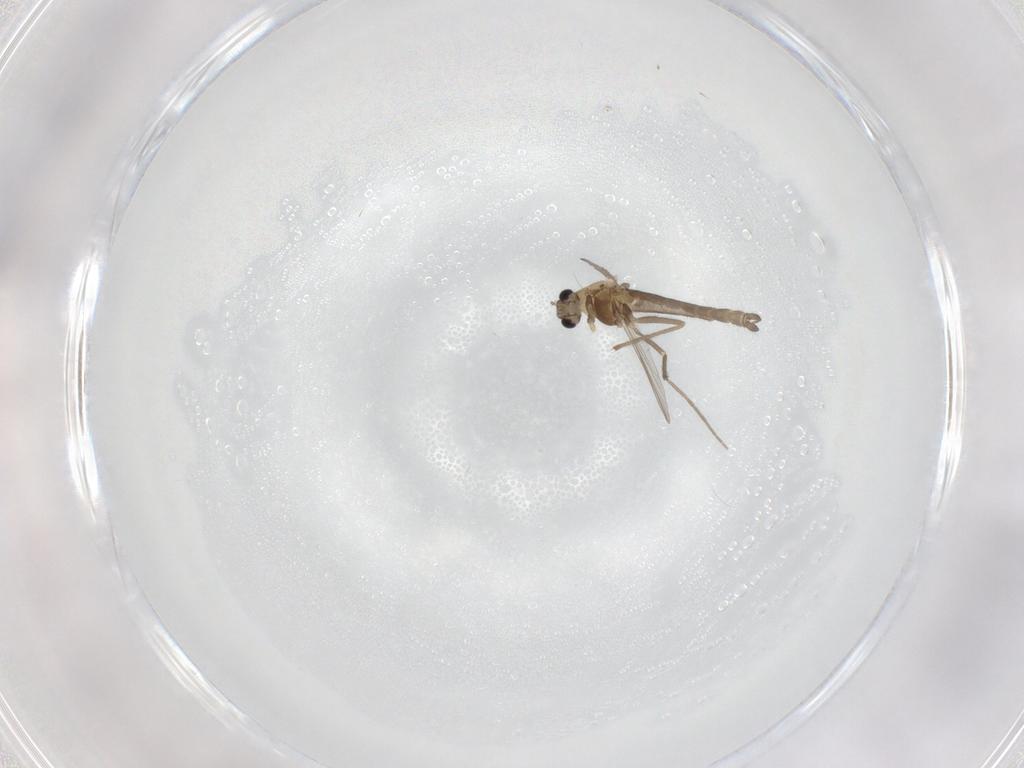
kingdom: Animalia
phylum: Arthropoda
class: Insecta
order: Diptera
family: Chironomidae
